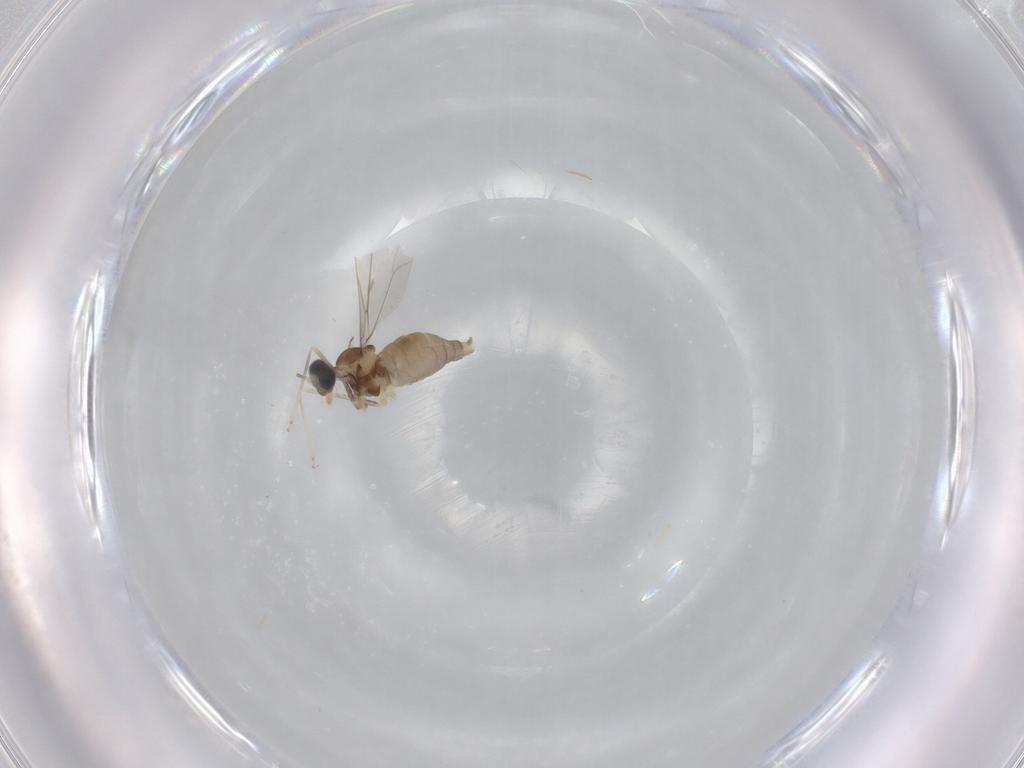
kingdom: Animalia
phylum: Arthropoda
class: Insecta
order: Diptera
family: Cecidomyiidae
